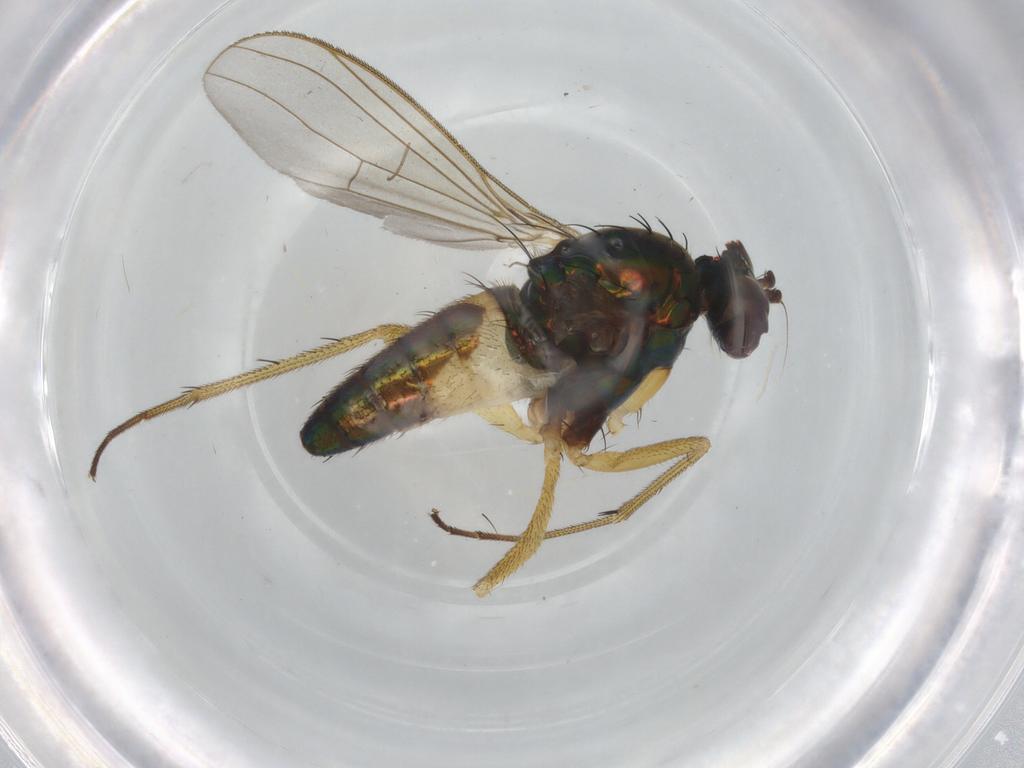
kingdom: Animalia
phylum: Arthropoda
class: Insecta
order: Diptera
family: Dolichopodidae
